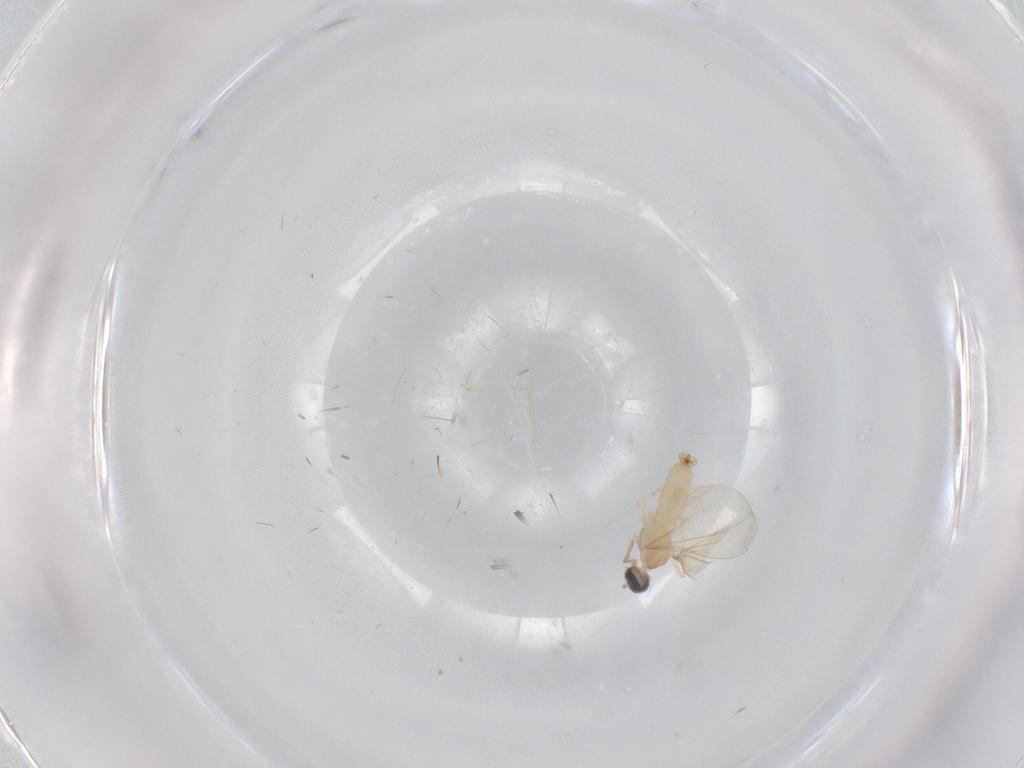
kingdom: Animalia
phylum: Arthropoda
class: Insecta
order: Diptera
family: Cecidomyiidae
